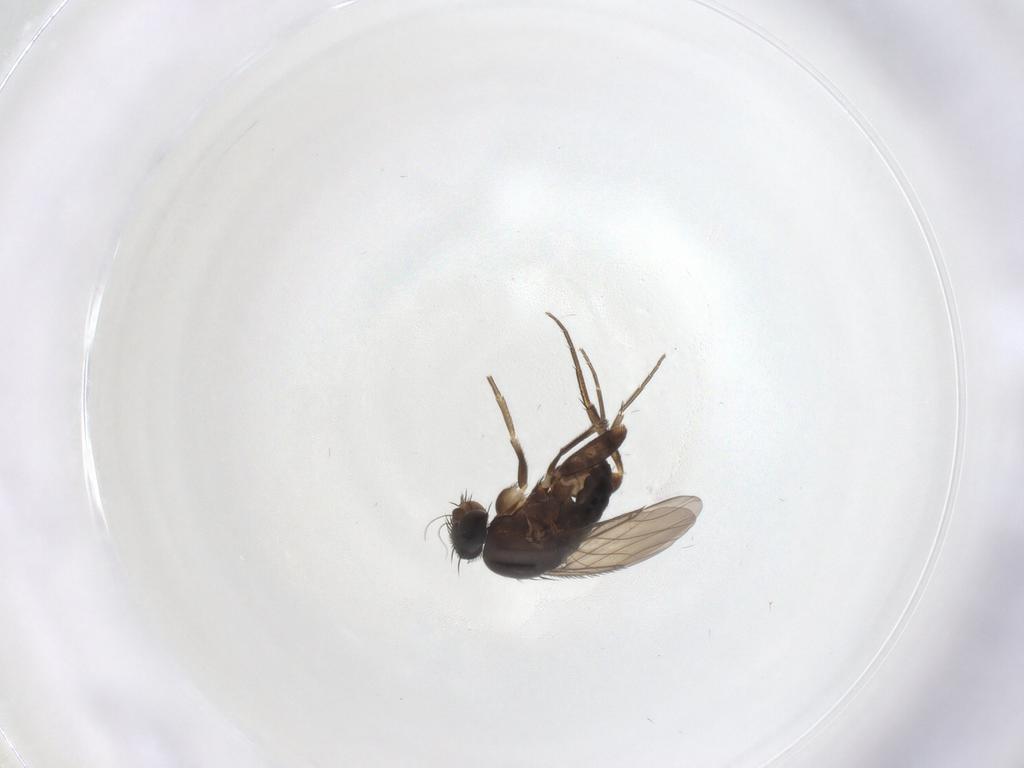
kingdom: Animalia
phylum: Arthropoda
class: Insecta
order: Diptera
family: Phoridae
